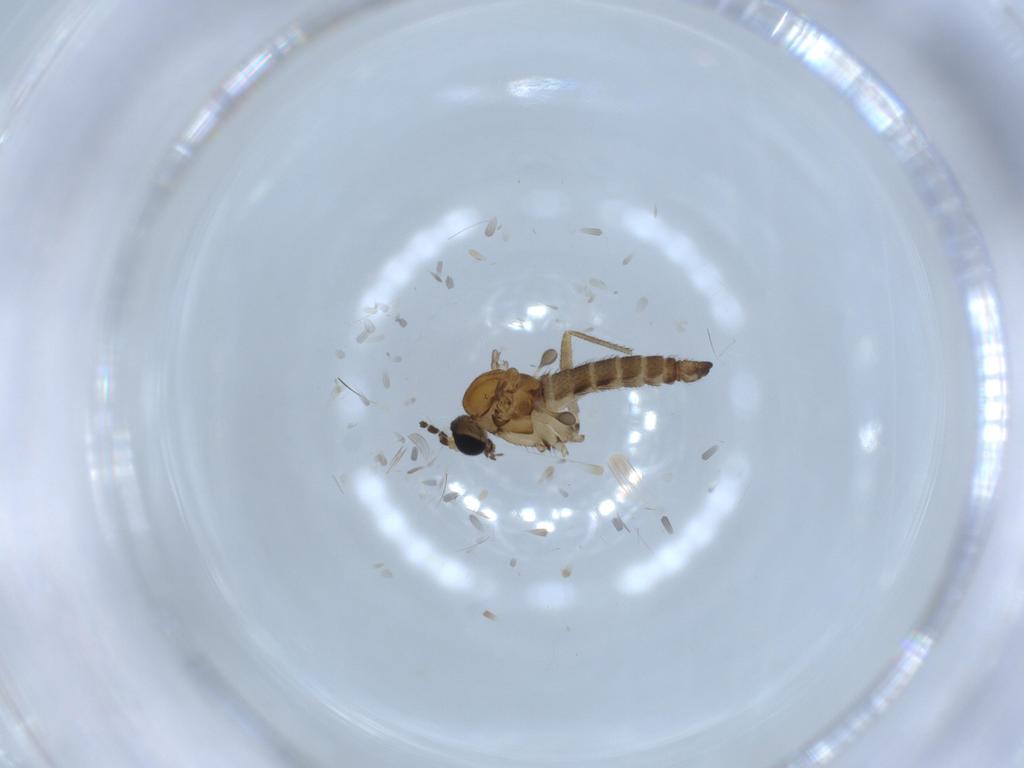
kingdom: Animalia
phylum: Arthropoda
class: Insecta
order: Diptera
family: Sciaridae
